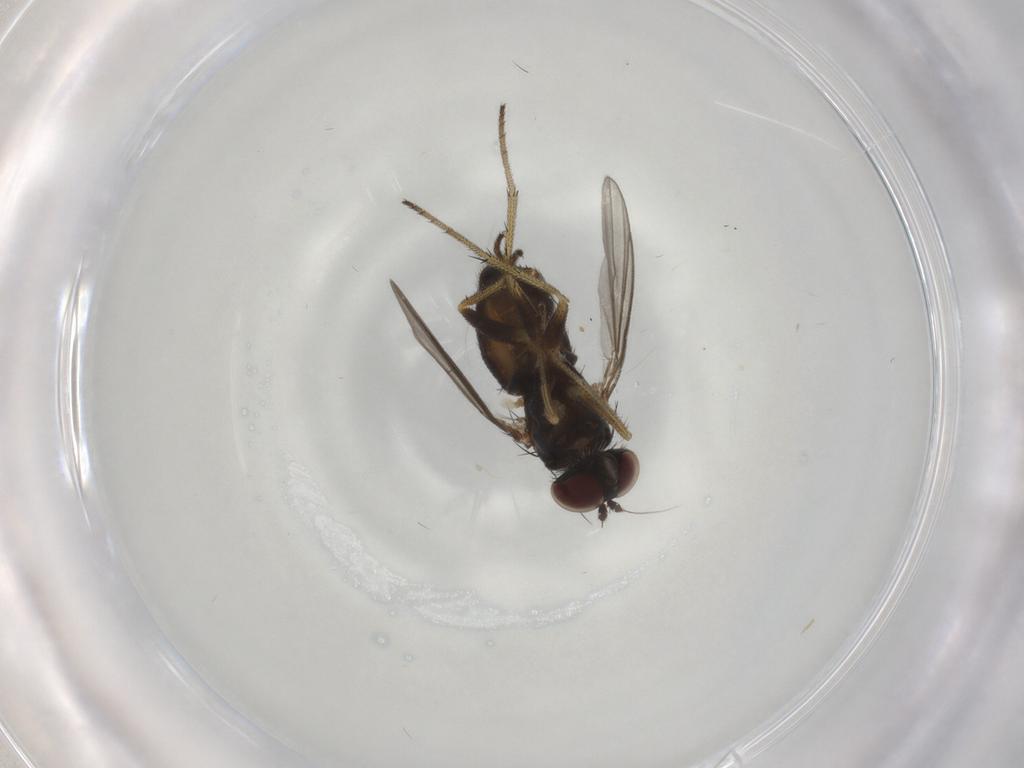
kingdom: Animalia
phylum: Arthropoda
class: Insecta
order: Diptera
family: Dolichopodidae
